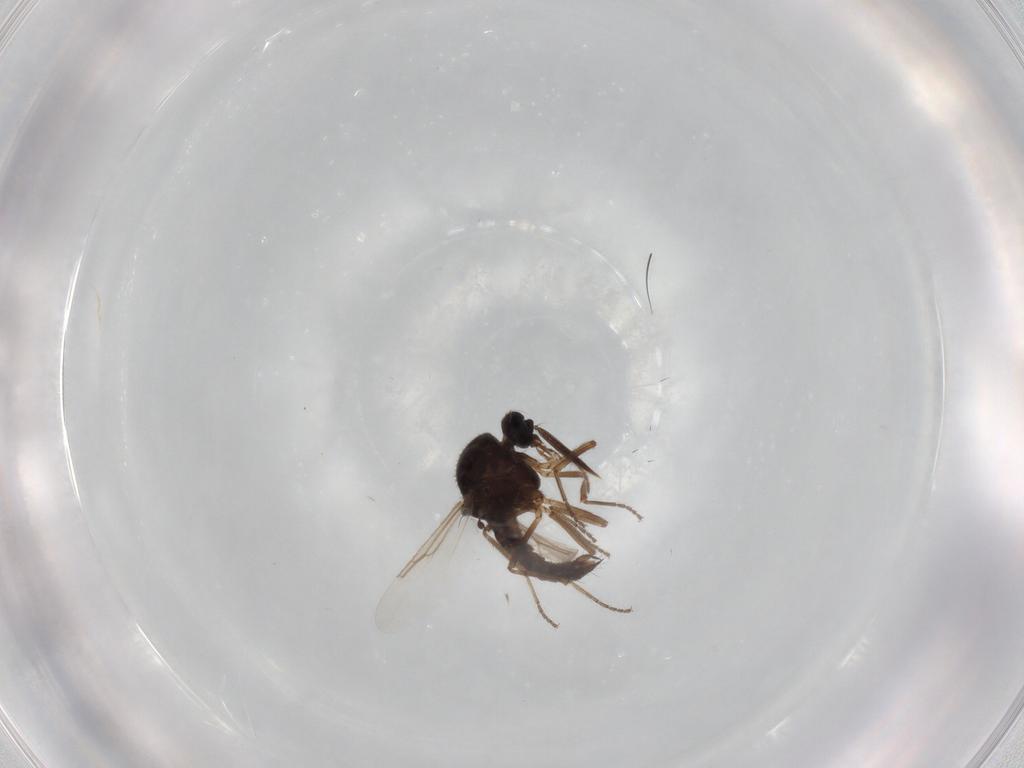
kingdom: Animalia
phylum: Arthropoda
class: Insecta
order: Diptera
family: Ceratopogonidae
